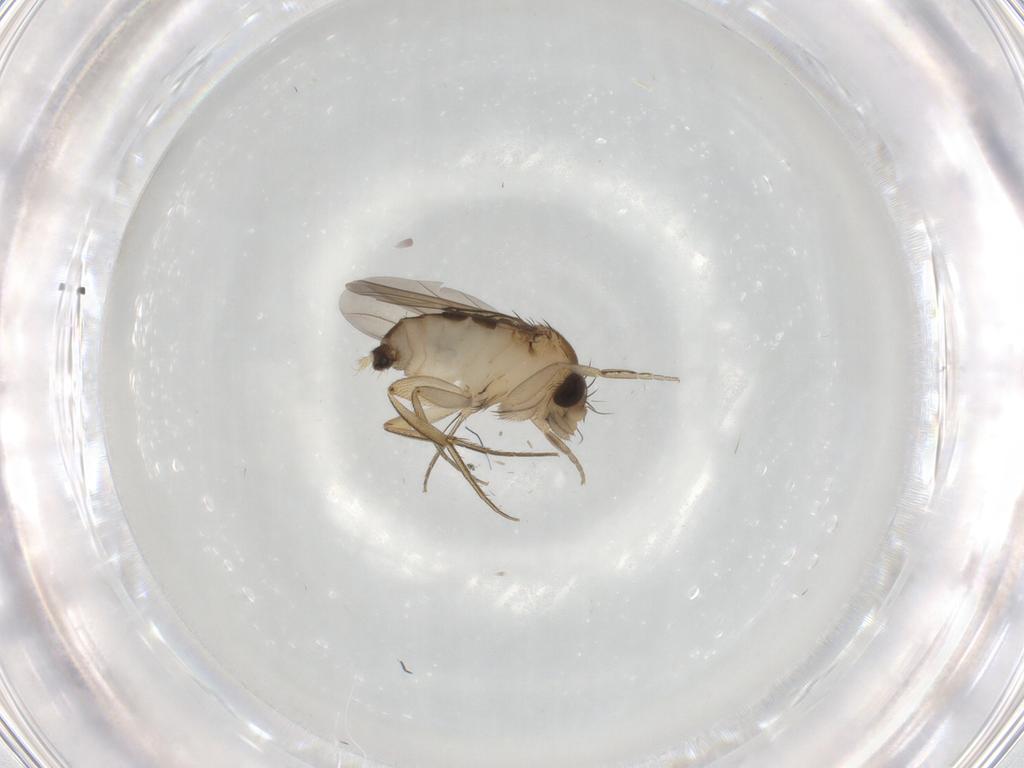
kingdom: Animalia
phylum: Arthropoda
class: Insecta
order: Diptera
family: Phoridae
